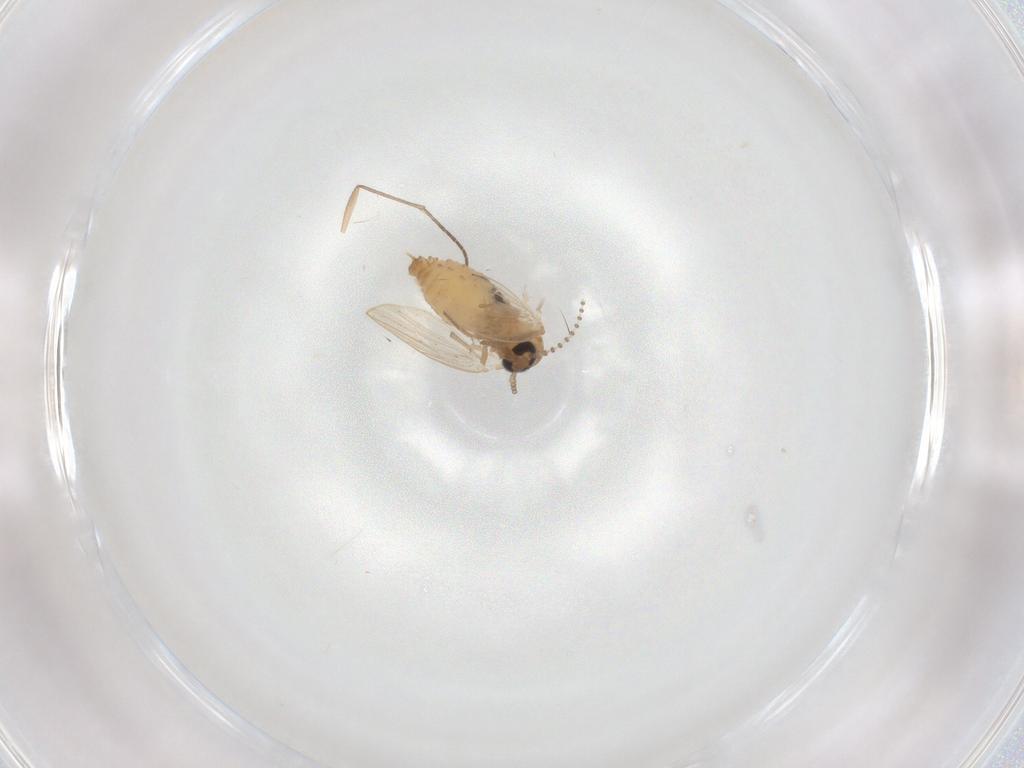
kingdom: Animalia
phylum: Arthropoda
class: Insecta
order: Diptera
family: Psychodidae
